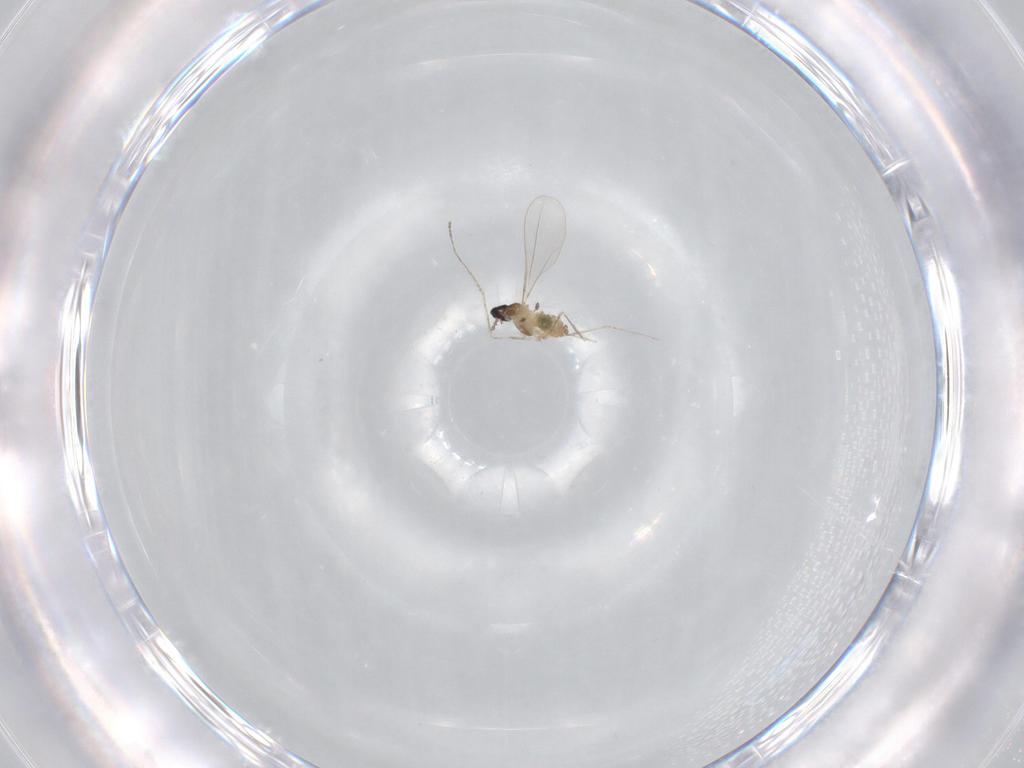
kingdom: Animalia
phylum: Arthropoda
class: Insecta
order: Diptera
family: Cecidomyiidae
